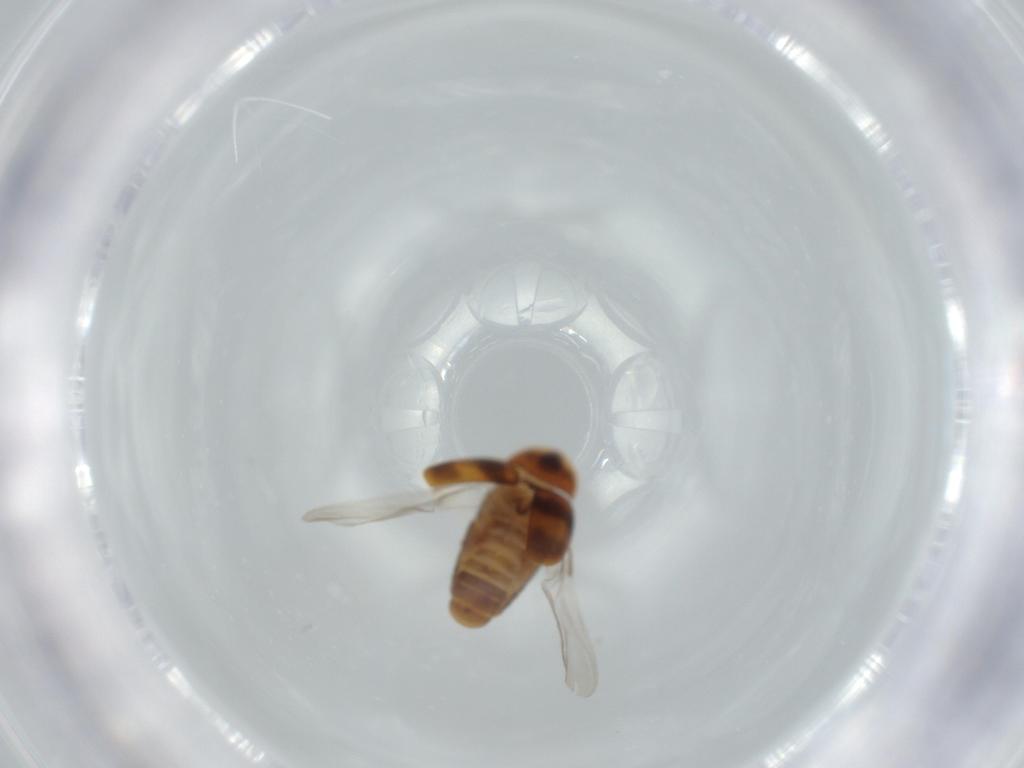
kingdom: Animalia
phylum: Arthropoda
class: Insecta
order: Coleoptera
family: Corylophidae
